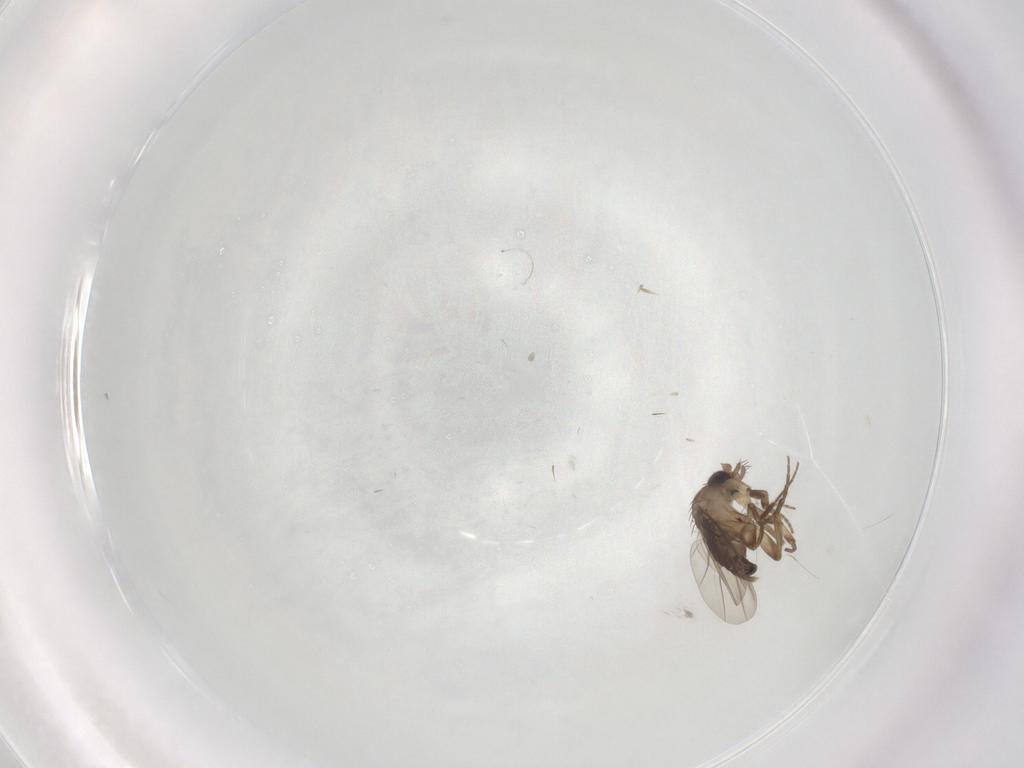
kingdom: Animalia
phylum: Arthropoda
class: Insecta
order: Diptera
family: Phoridae
